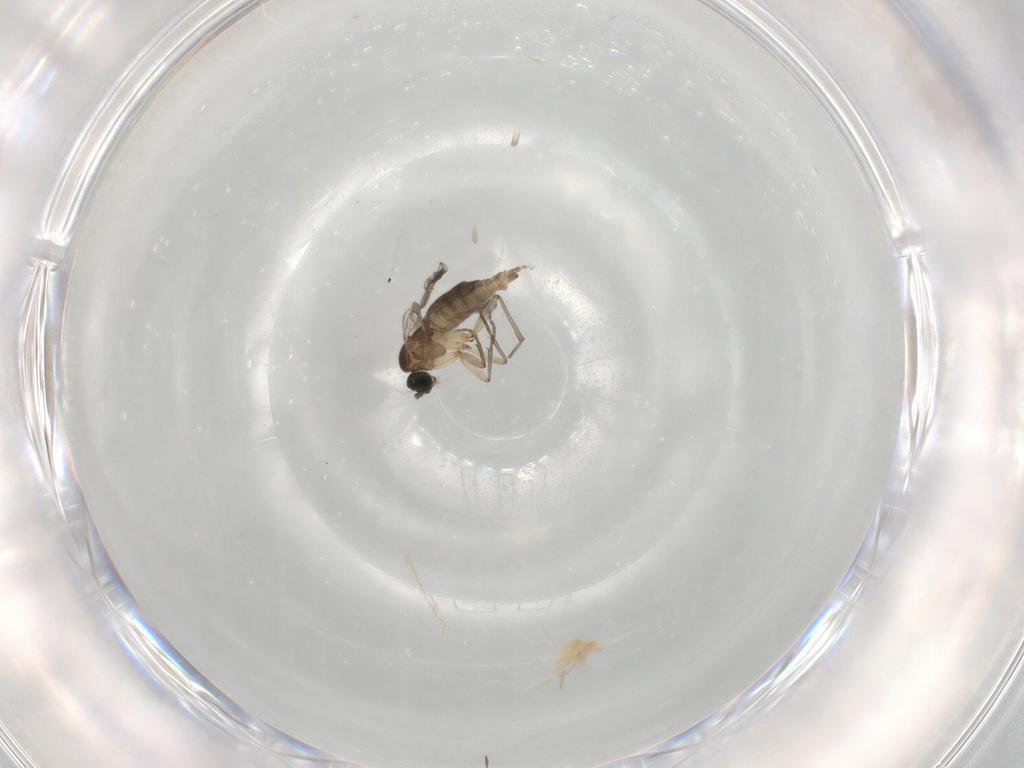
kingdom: Animalia
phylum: Arthropoda
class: Insecta
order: Diptera
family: Sciaridae
